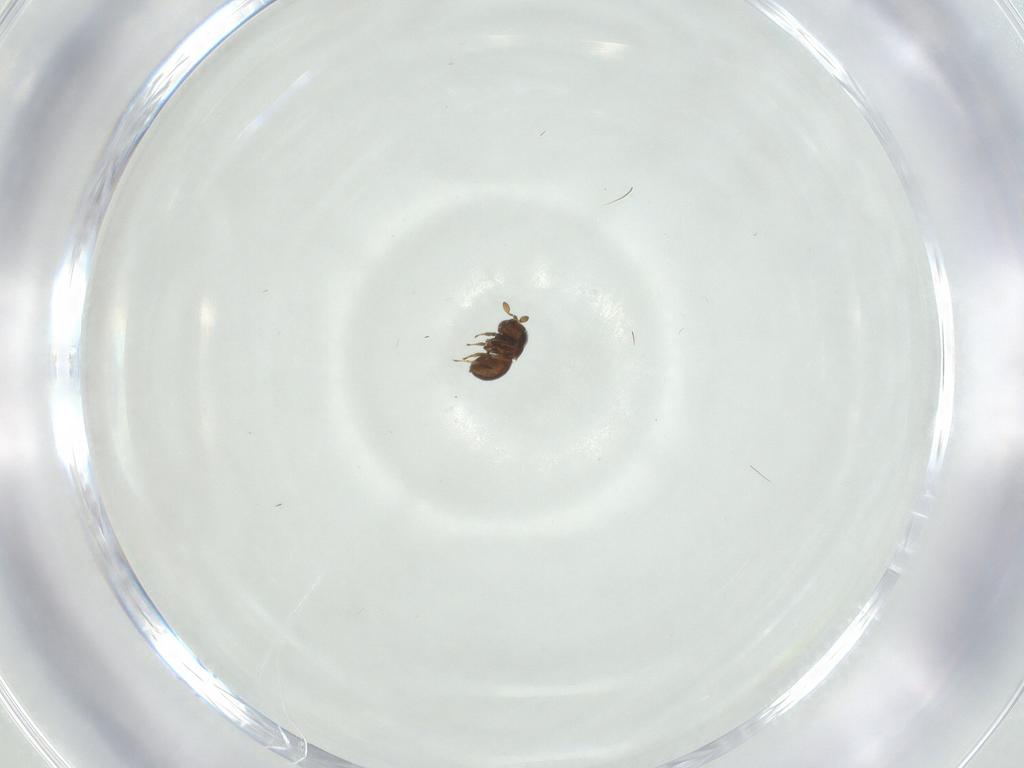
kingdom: Animalia
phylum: Arthropoda
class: Insecta
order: Hymenoptera
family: Scelionidae
